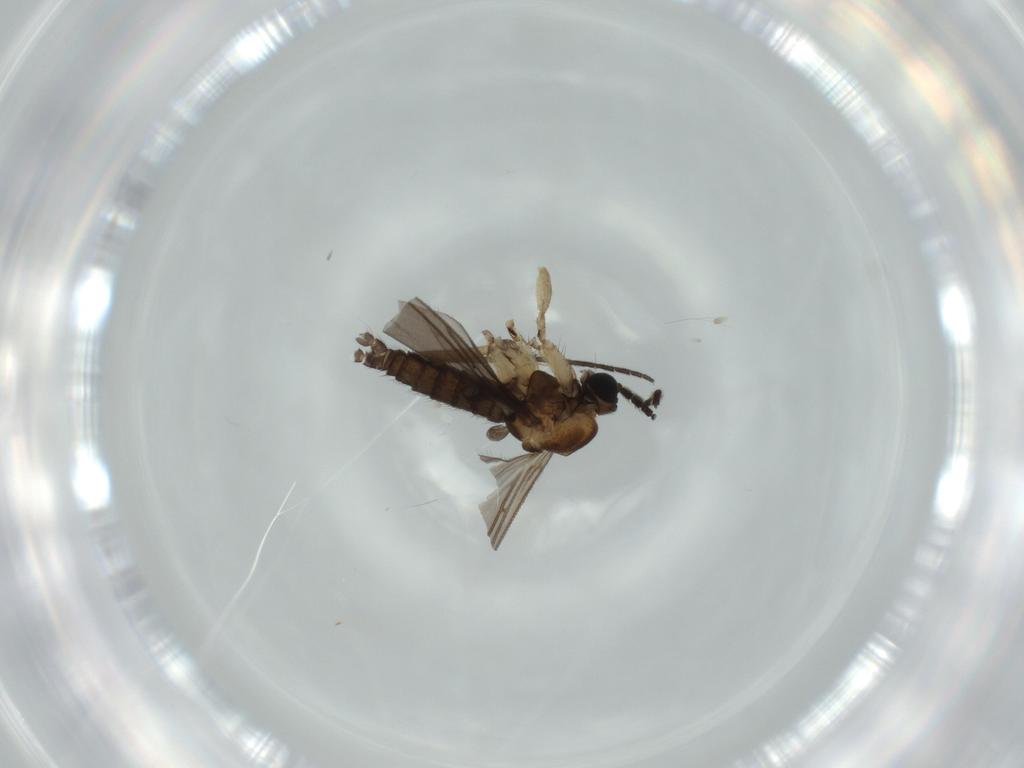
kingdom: Animalia
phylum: Arthropoda
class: Insecta
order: Diptera
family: Sciaridae
